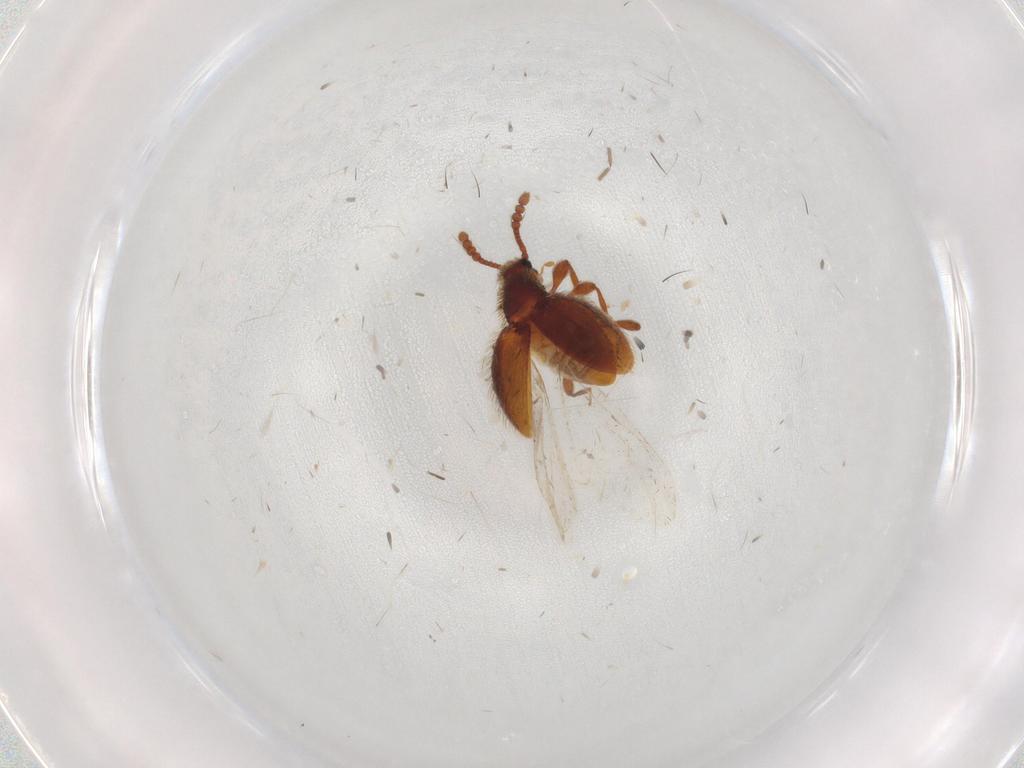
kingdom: Animalia
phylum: Arthropoda
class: Insecta
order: Coleoptera
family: Staphylinidae
